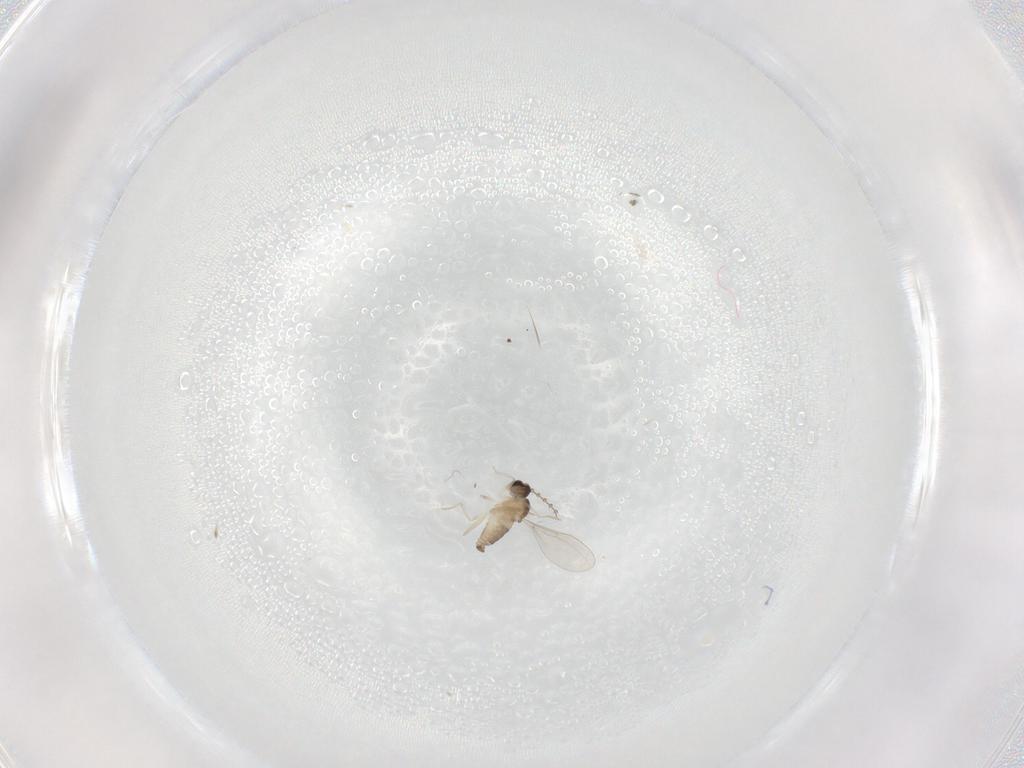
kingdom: Animalia
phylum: Arthropoda
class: Insecta
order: Diptera
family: Cecidomyiidae
